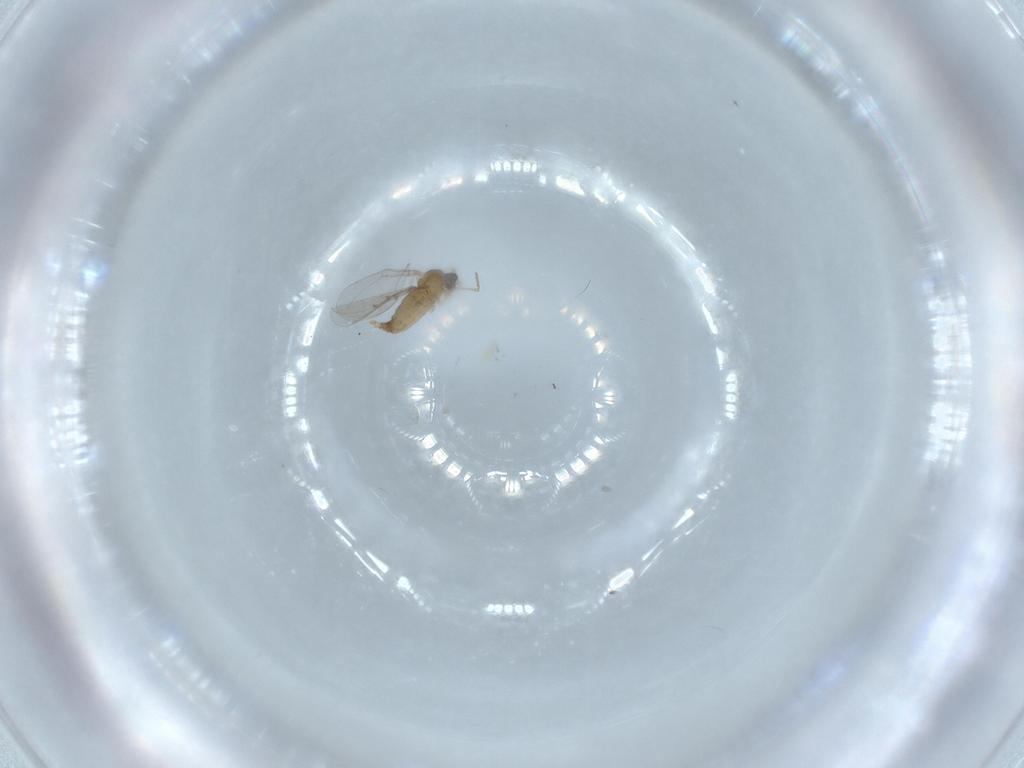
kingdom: Animalia
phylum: Arthropoda
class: Insecta
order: Diptera
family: Cecidomyiidae
